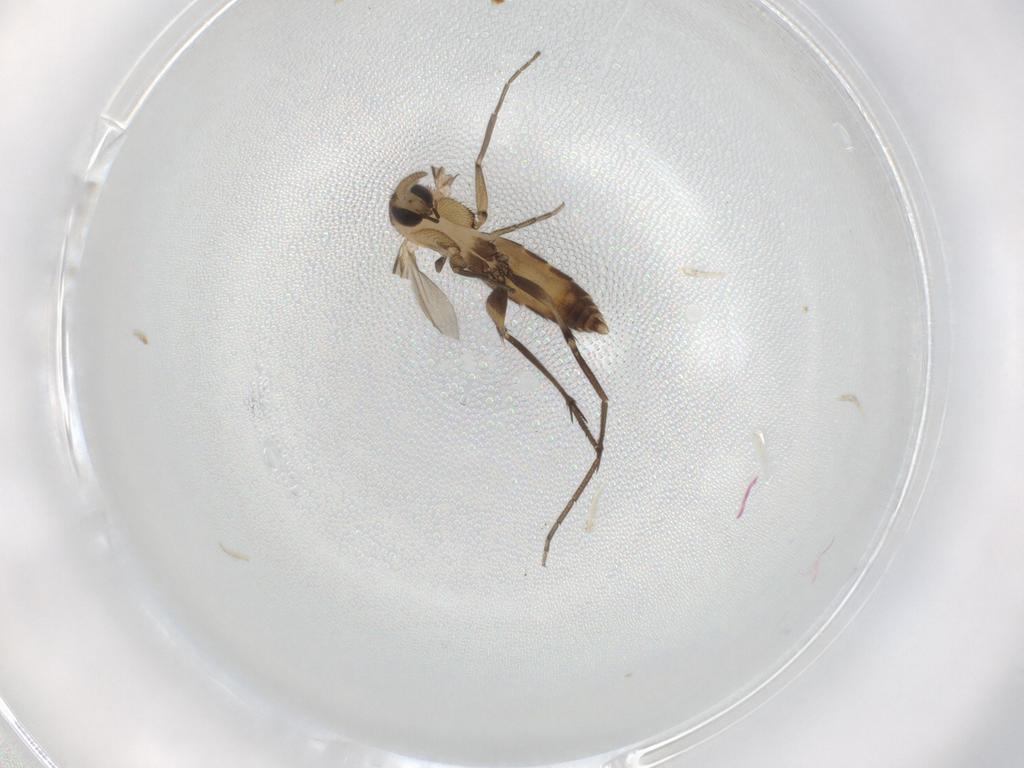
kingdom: Animalia
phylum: Arthropoda
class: Insecta
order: Diptera
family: Mycetophilidae
